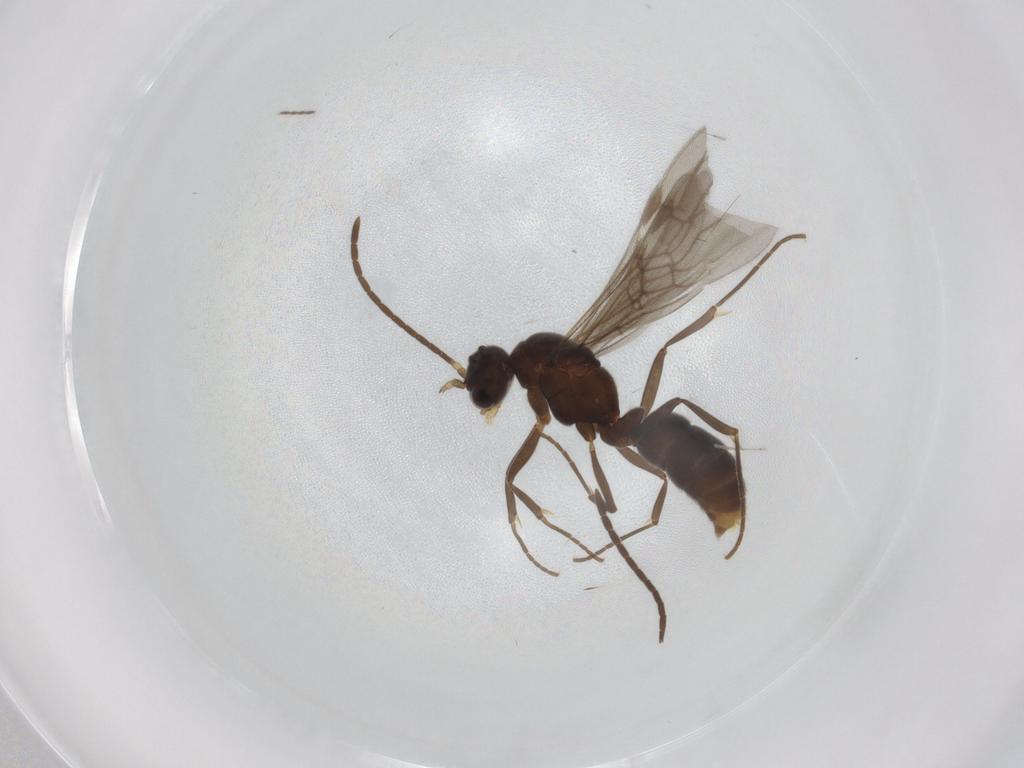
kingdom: Animalia
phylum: Arthropoda
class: Insecta
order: Hymenoptera
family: Formicidae
